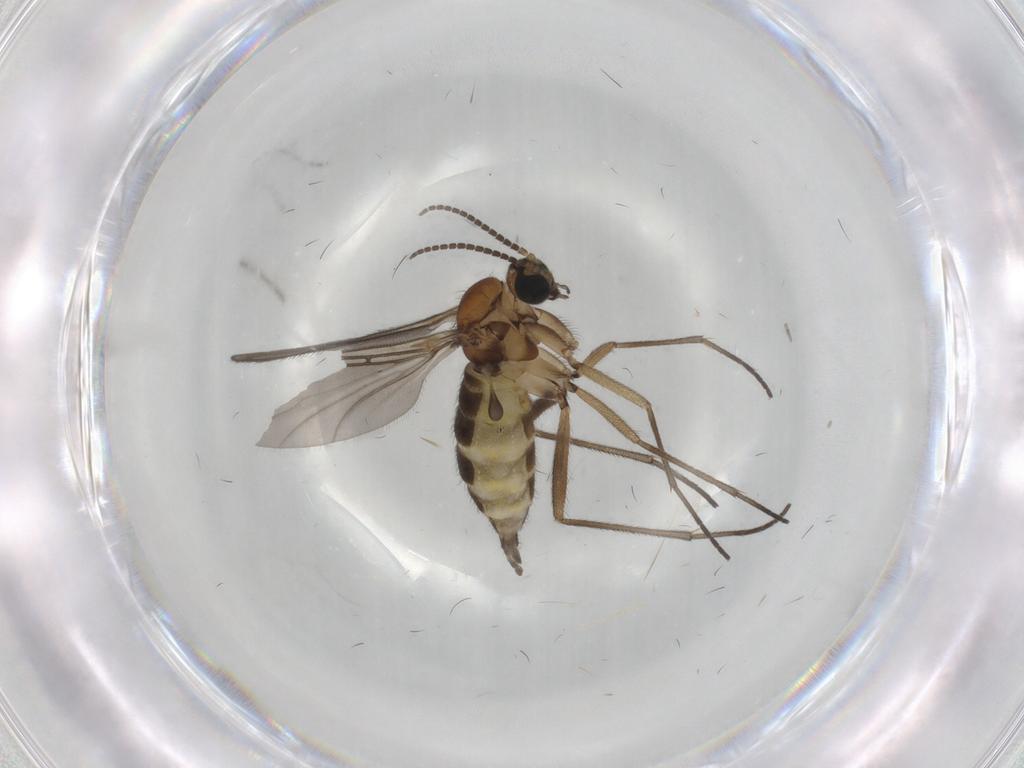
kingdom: Animalia
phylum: Arthropoda
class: Insecta
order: Diptera
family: Sciaridae
